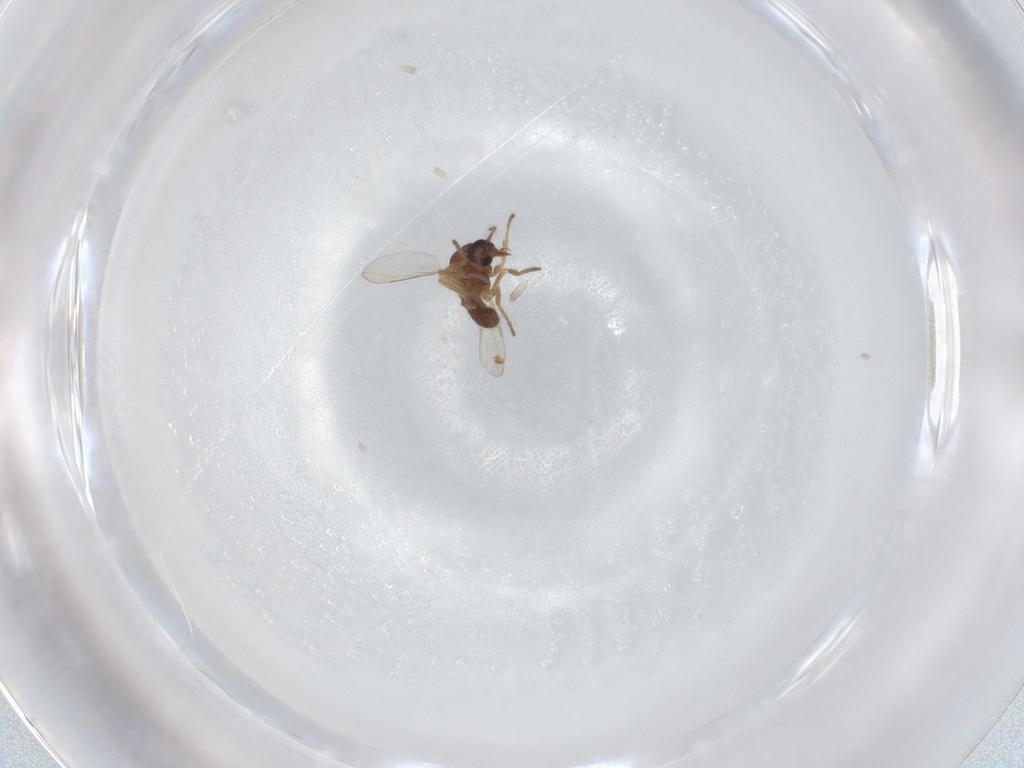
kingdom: Animalia
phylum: Arthropoda
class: Insecta
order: Diptera
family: Ceratopogonidae
